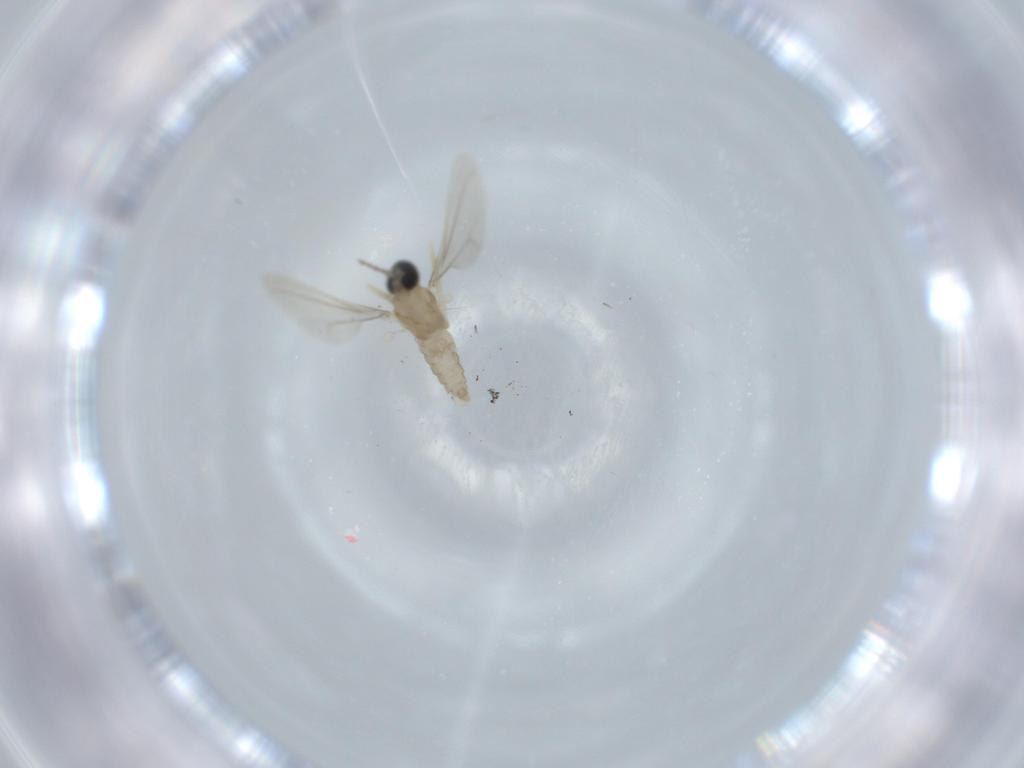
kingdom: Animalia
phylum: Arthropoda
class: Insecta
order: Diptera
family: Cecidomyiidae
